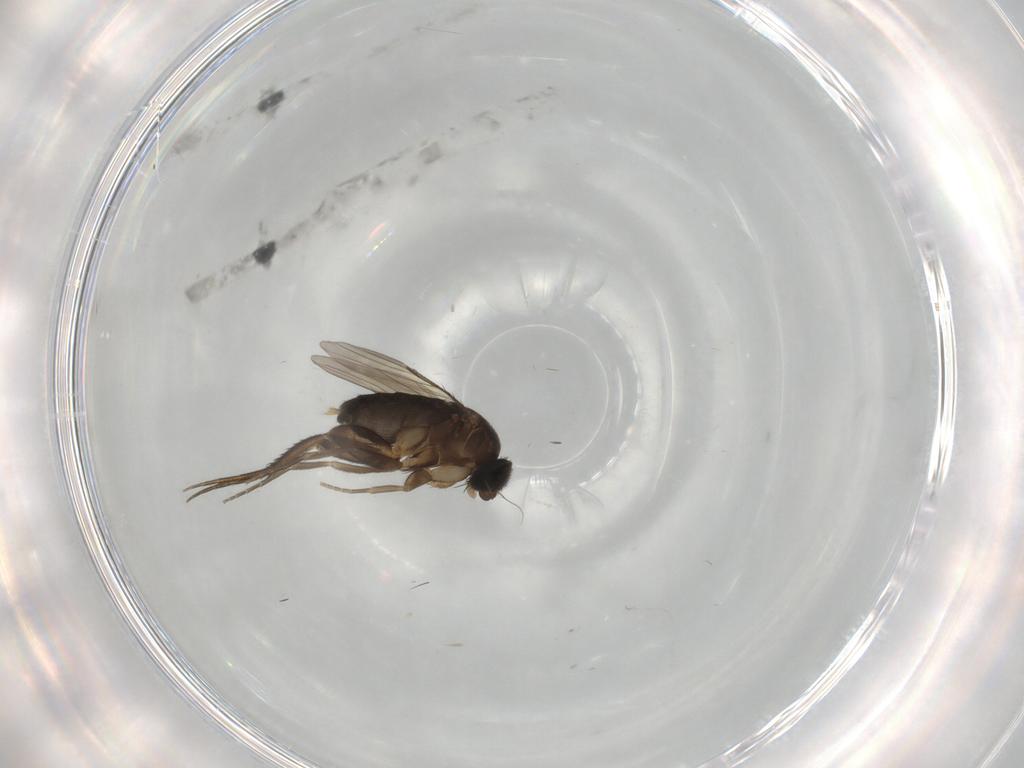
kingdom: Animalia
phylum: Arthropoda
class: Insecta
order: Diptera
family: Phoridae
